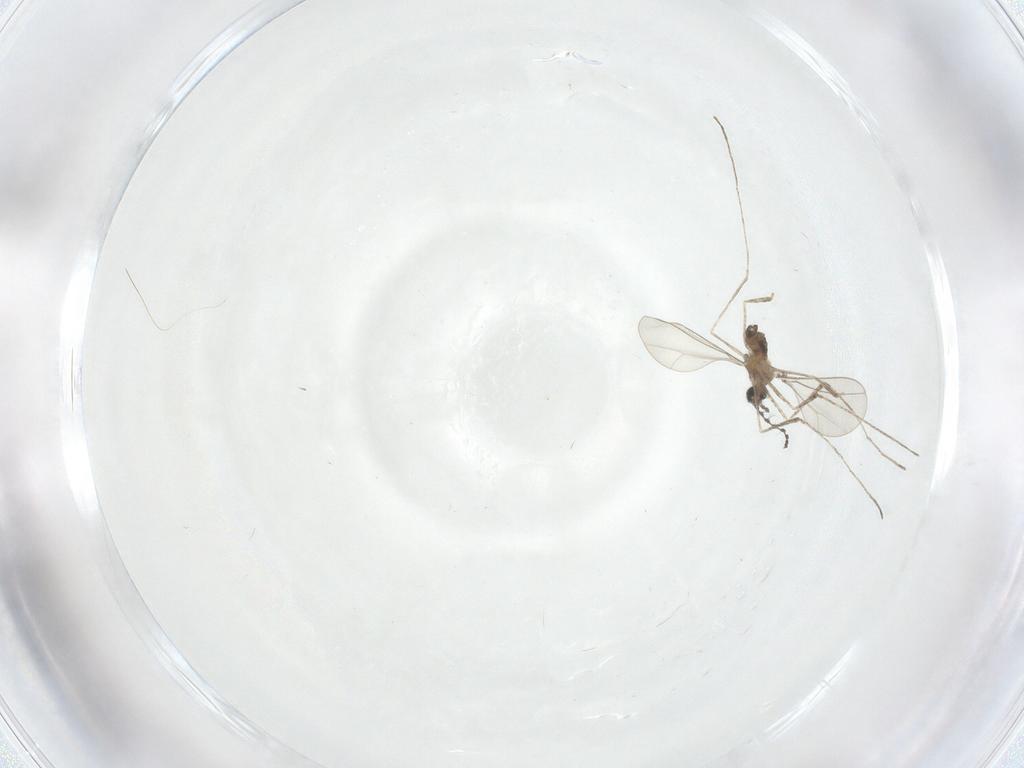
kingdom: Animalia
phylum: Arthropoda
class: Insecta
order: Diptera
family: Cecidomyiidae
